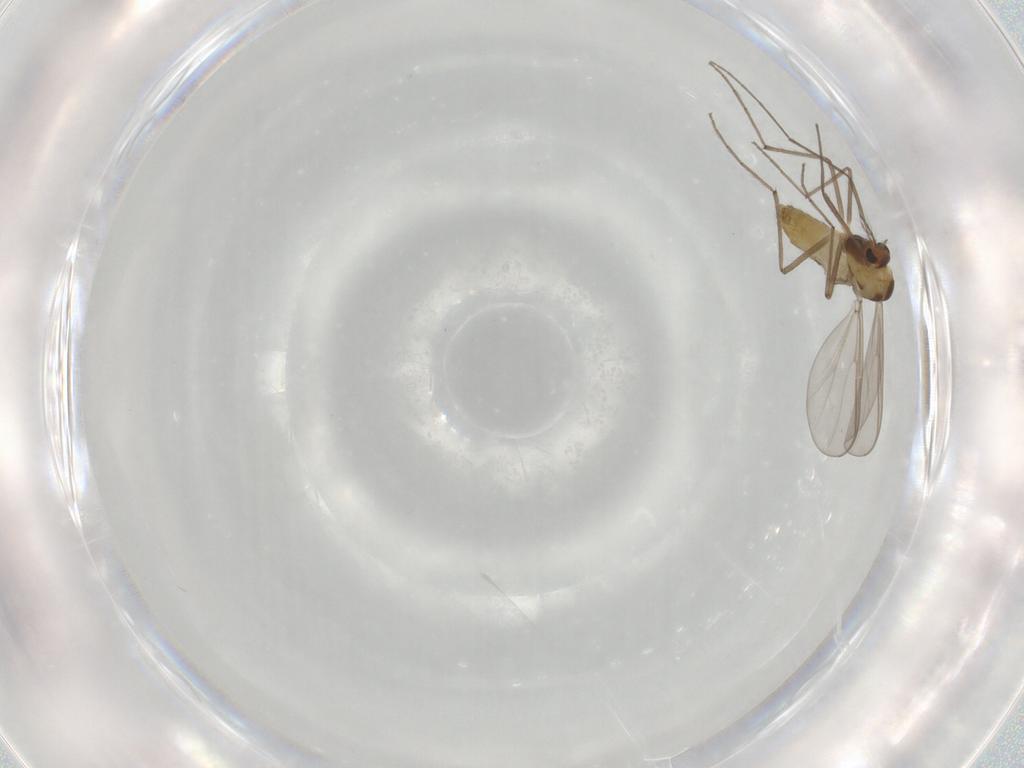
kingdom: Animalia
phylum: Arthropoda
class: Insecta
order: Diptera
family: Chironomidae
